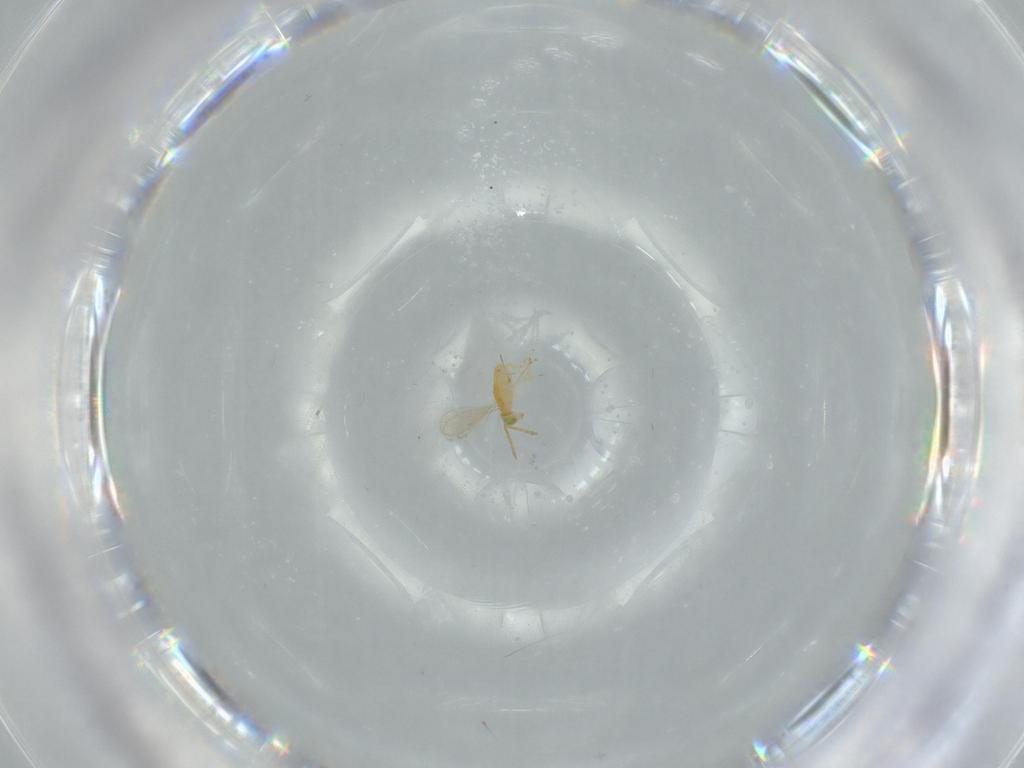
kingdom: Animalia
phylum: Arthropoda
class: Insecta
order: Hymenoptera
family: Aphelinidae
